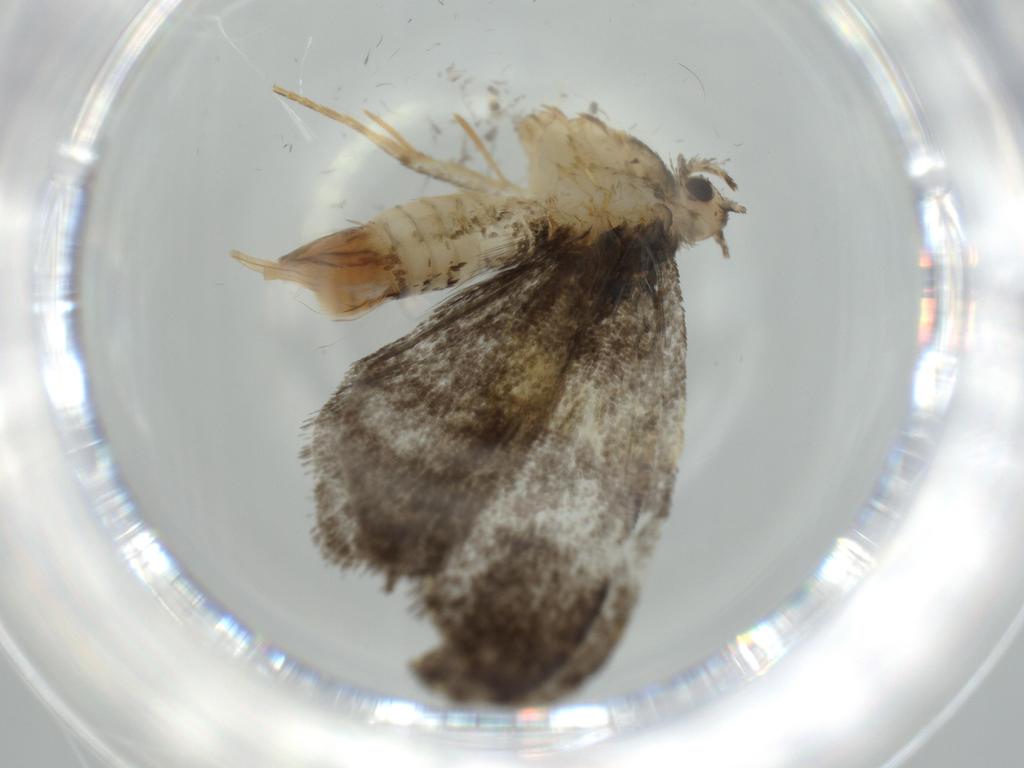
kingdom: Animalia
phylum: Arthropoda
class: Insecta
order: Lepidoptera
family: Psychidae
